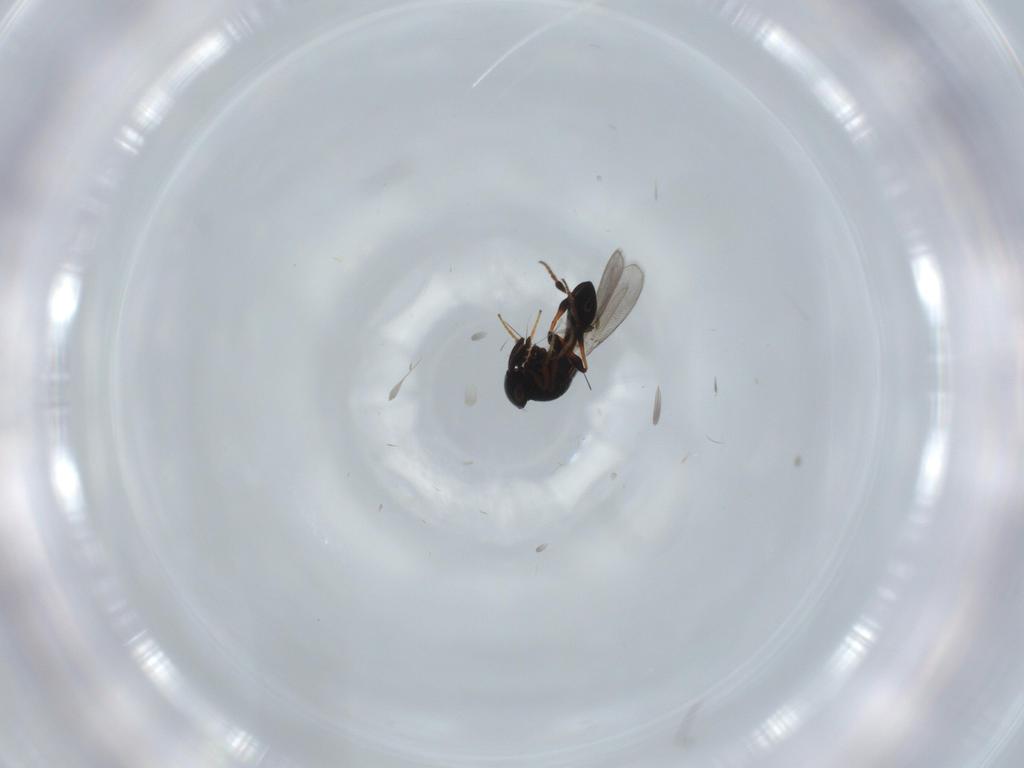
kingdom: Animalia
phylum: Arthropoda
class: Insecta
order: Hymenoptera
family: Platygastridae
